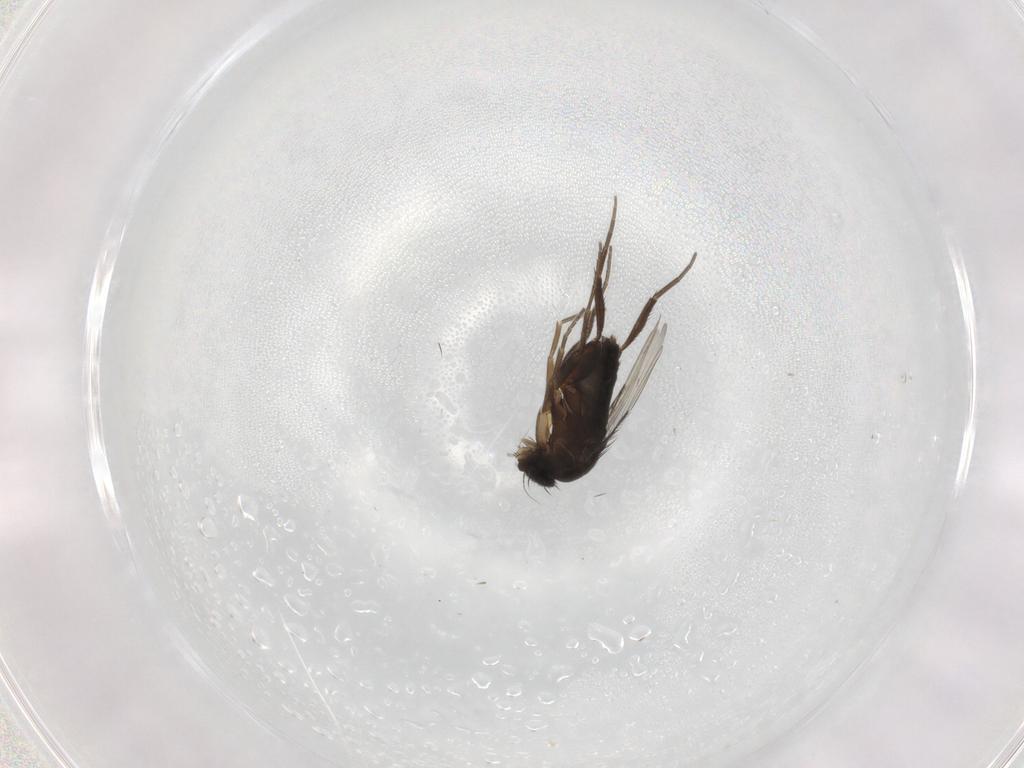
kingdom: Animalia
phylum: Arthropoda
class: Insecta
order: Diptera
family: Phoridae
